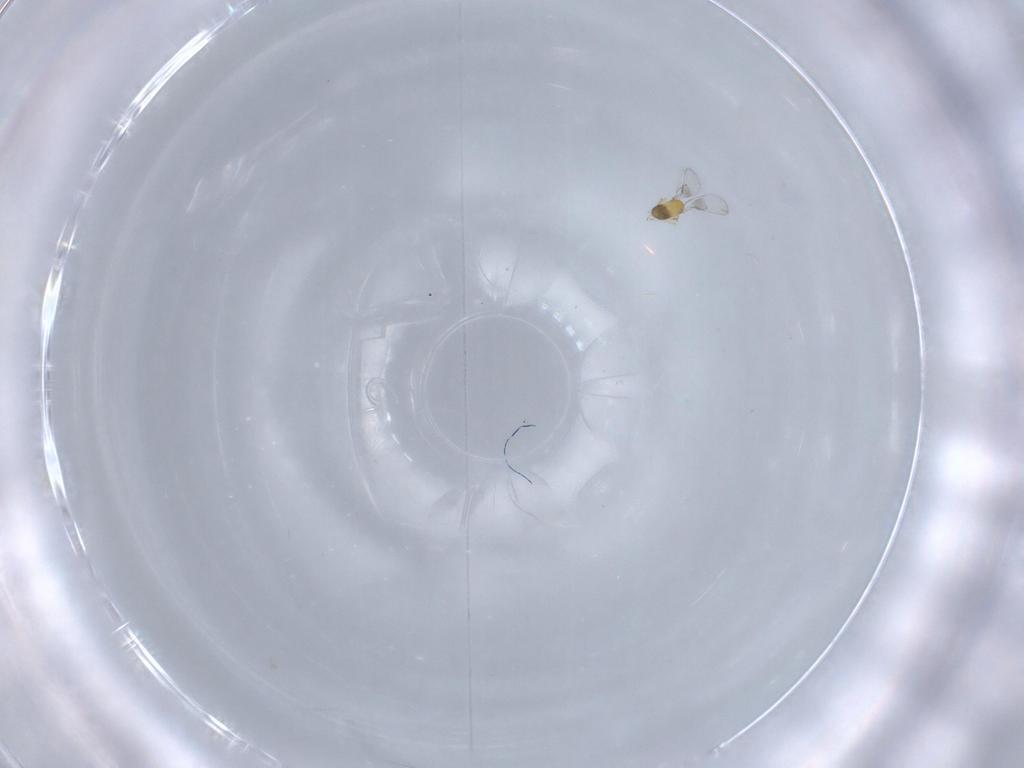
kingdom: Animalia
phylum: Arthropoda
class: Insecta
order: Hymenoptera
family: Trichogrammatidae
